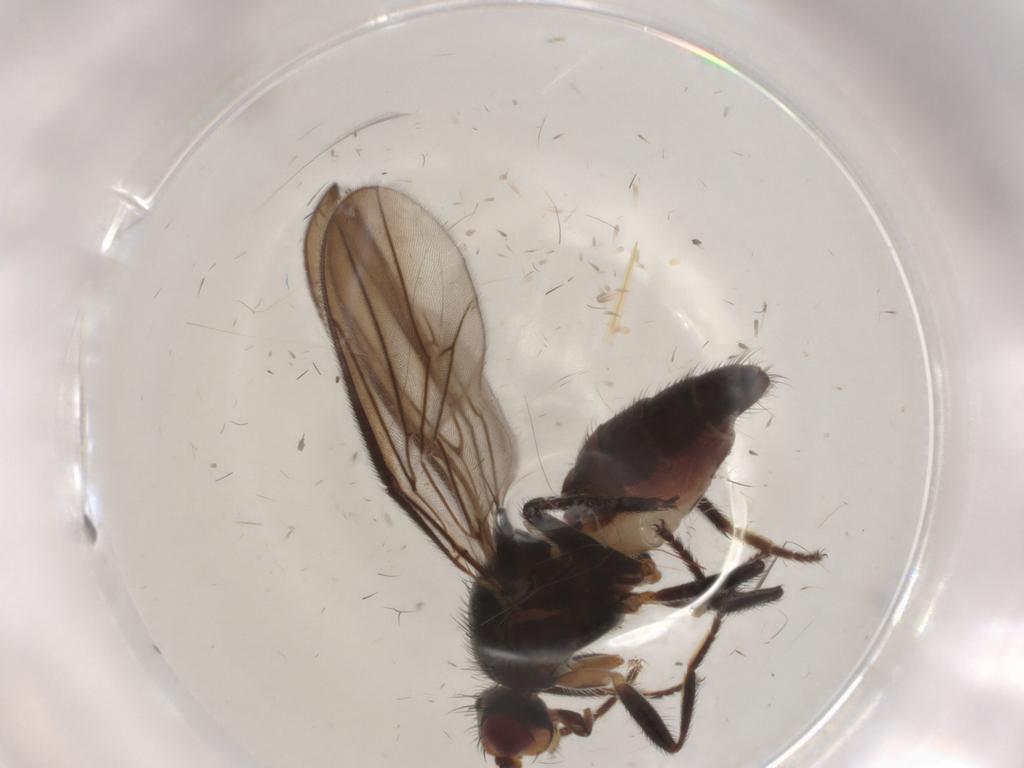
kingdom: Animalia
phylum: Arthropoda
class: Insecta
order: Diptera
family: Chloropidae
